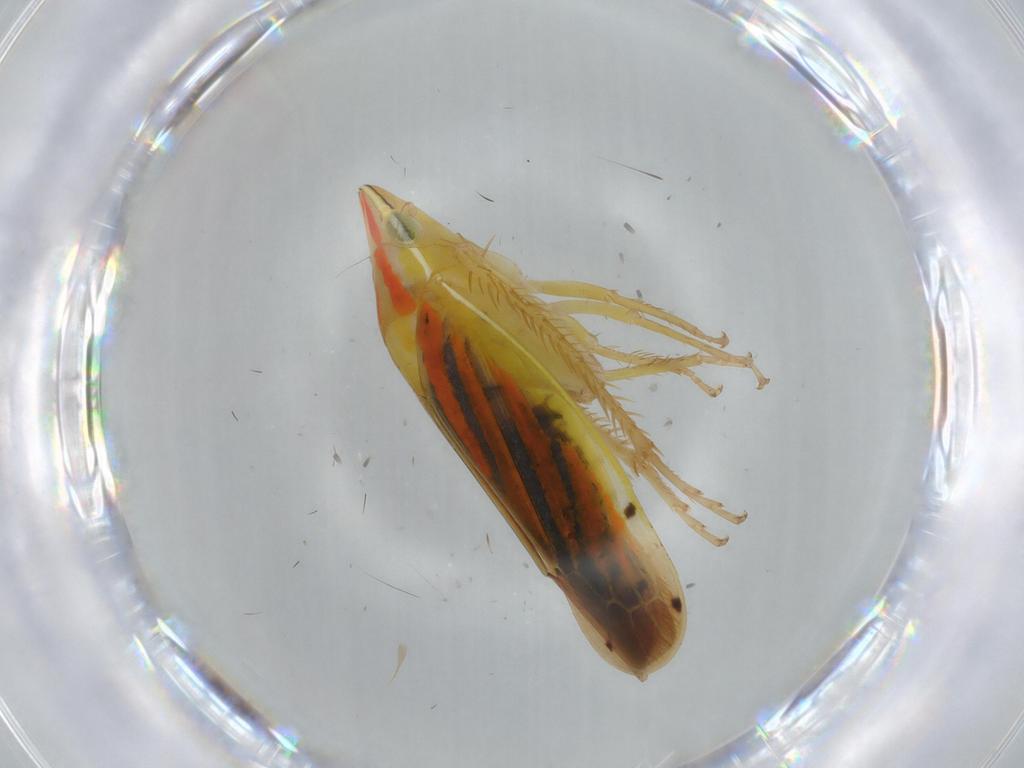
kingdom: Animalia
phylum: Arthropoda
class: Insecta
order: Hemiptera
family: Cicadellidae
